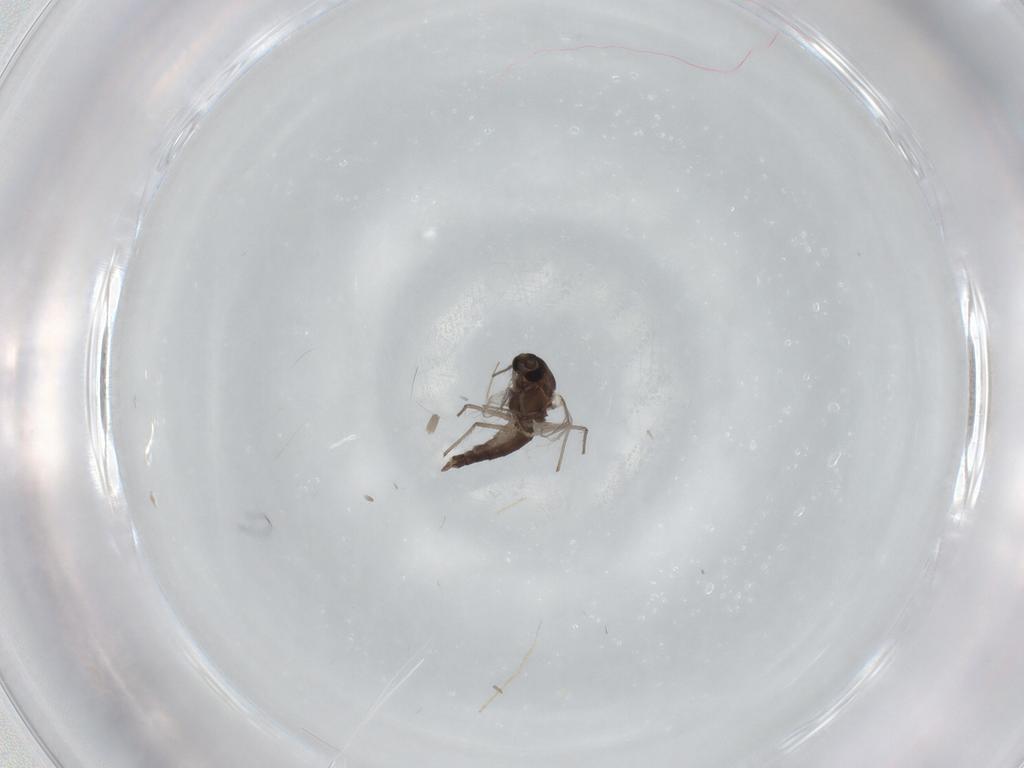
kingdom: Animalia
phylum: Arthropoda
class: Insecta
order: Diptera
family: Chironomidae
